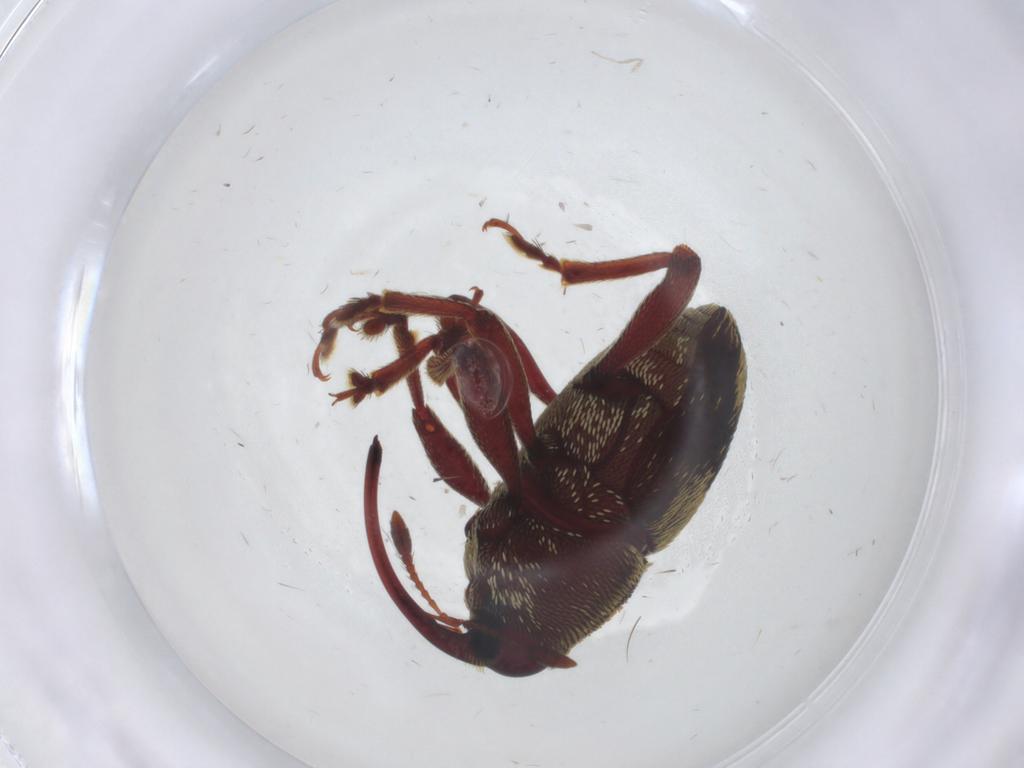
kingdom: Animalia
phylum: Arthropoda
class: Insecta
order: Coleoptera
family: Curculionidae
